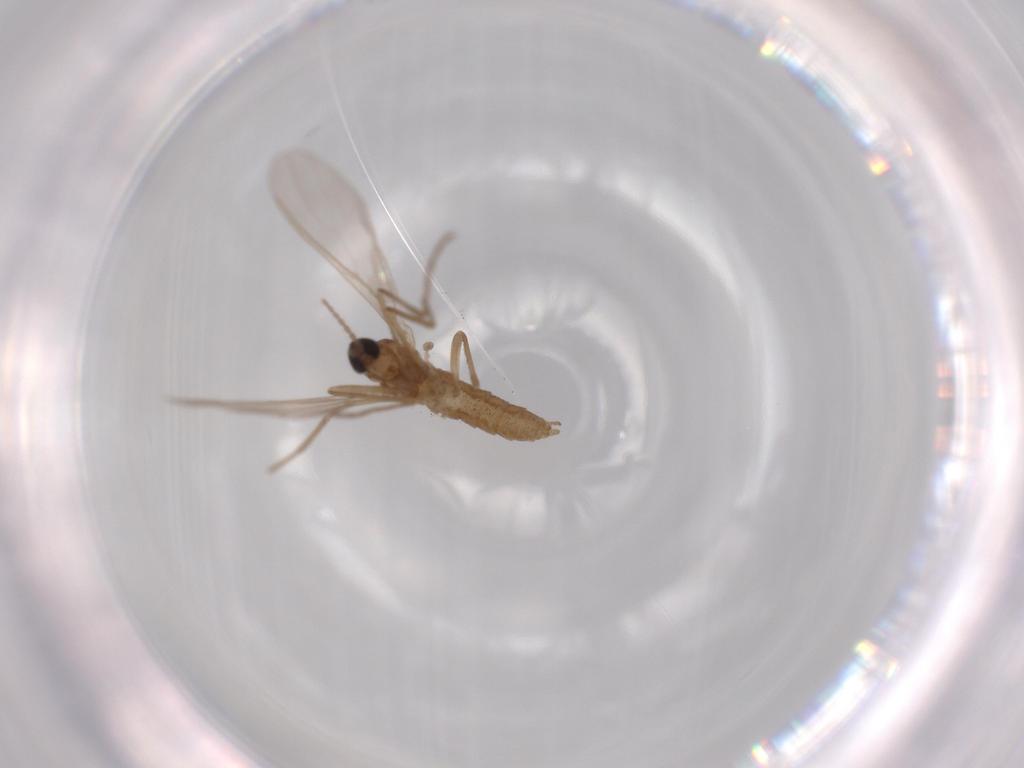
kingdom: Animalia
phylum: Arthropoda
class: Insecta
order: Diptera
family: Cecidomyiidae
